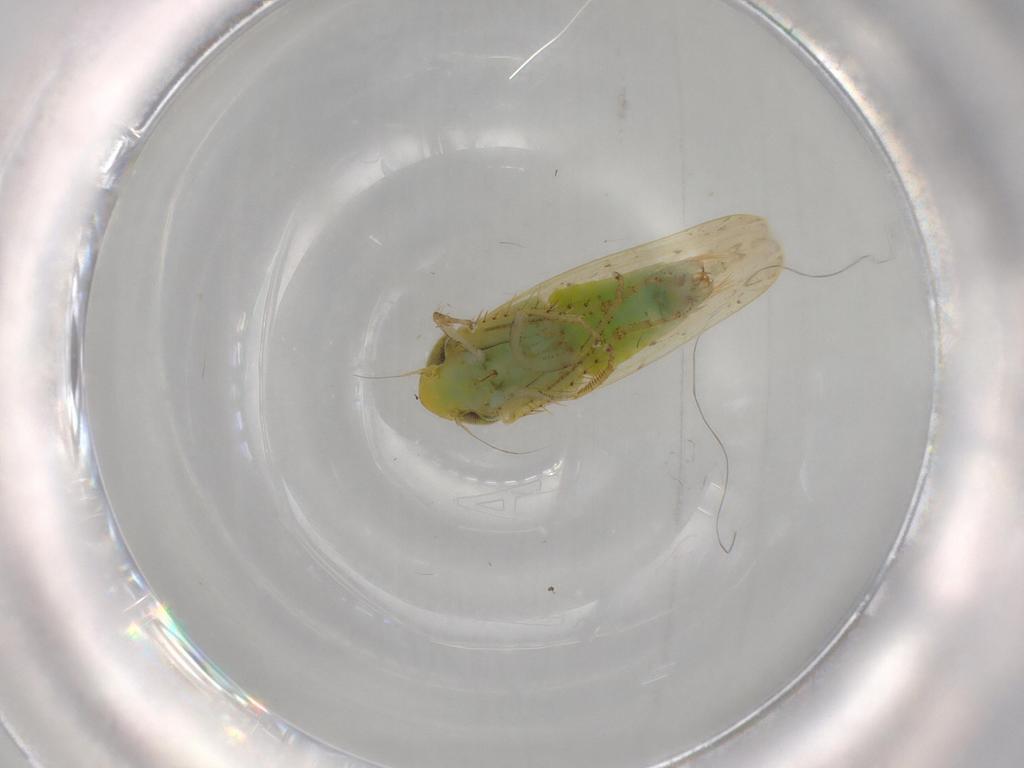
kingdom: Animalia
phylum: Arthropoda
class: Insecta
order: Hemiptera
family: Cicadellidae
